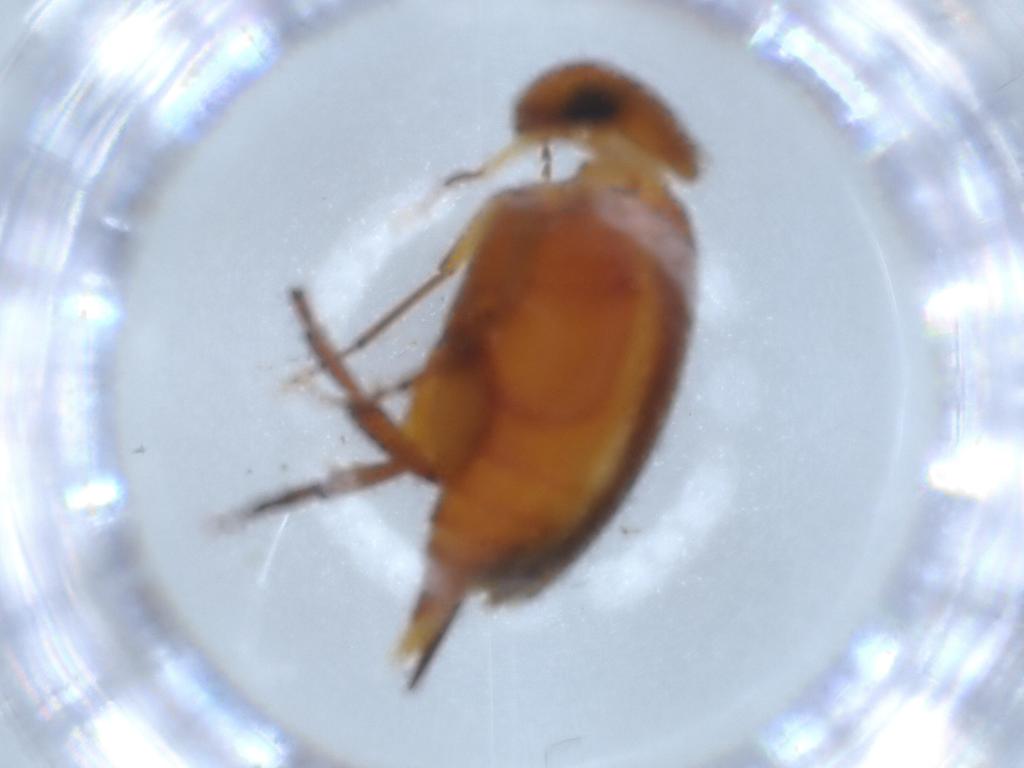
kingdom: Animalia
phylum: Arthropoda
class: Insecta
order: Coleoptera
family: Mordellidae
